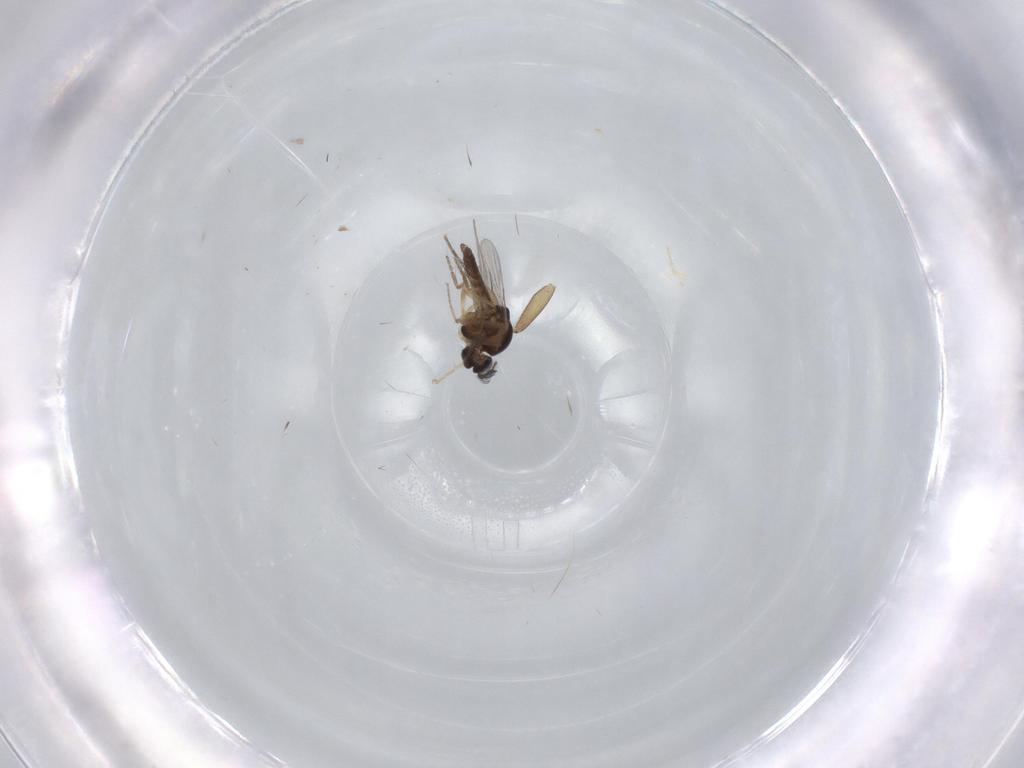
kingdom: Animalia
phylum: Arthropoda
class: Insecta
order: Diptera
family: Ceratopogonidae
